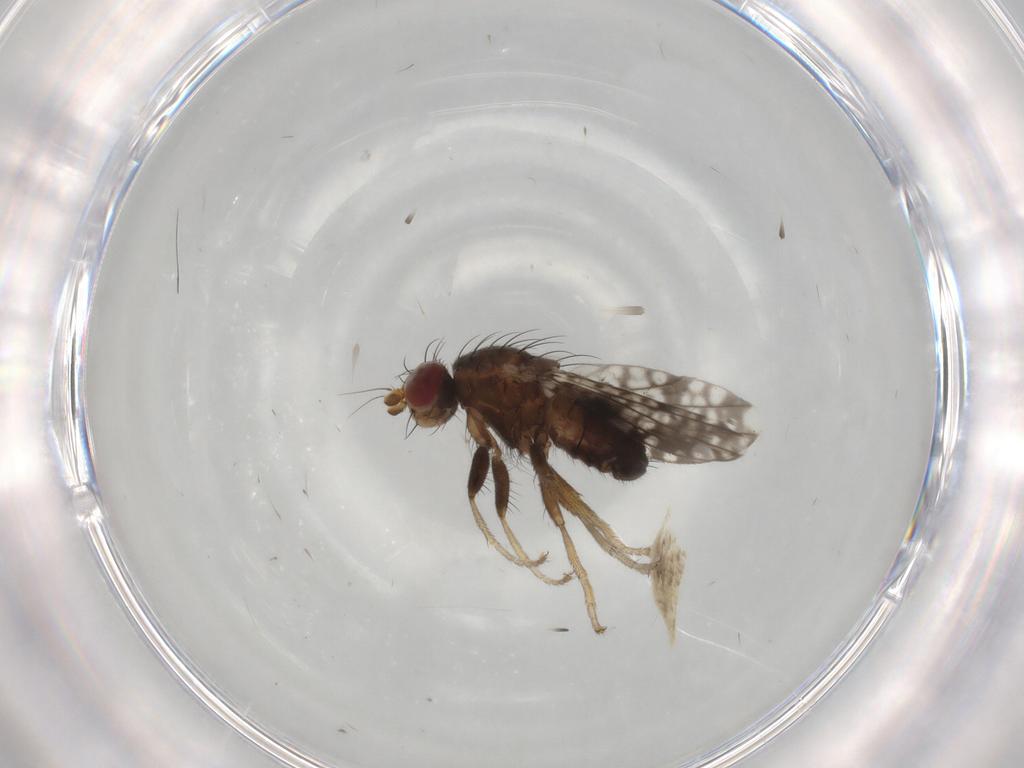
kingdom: Animalia
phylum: Arthropoda
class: Insecta
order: Diptera
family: Tephritidae
